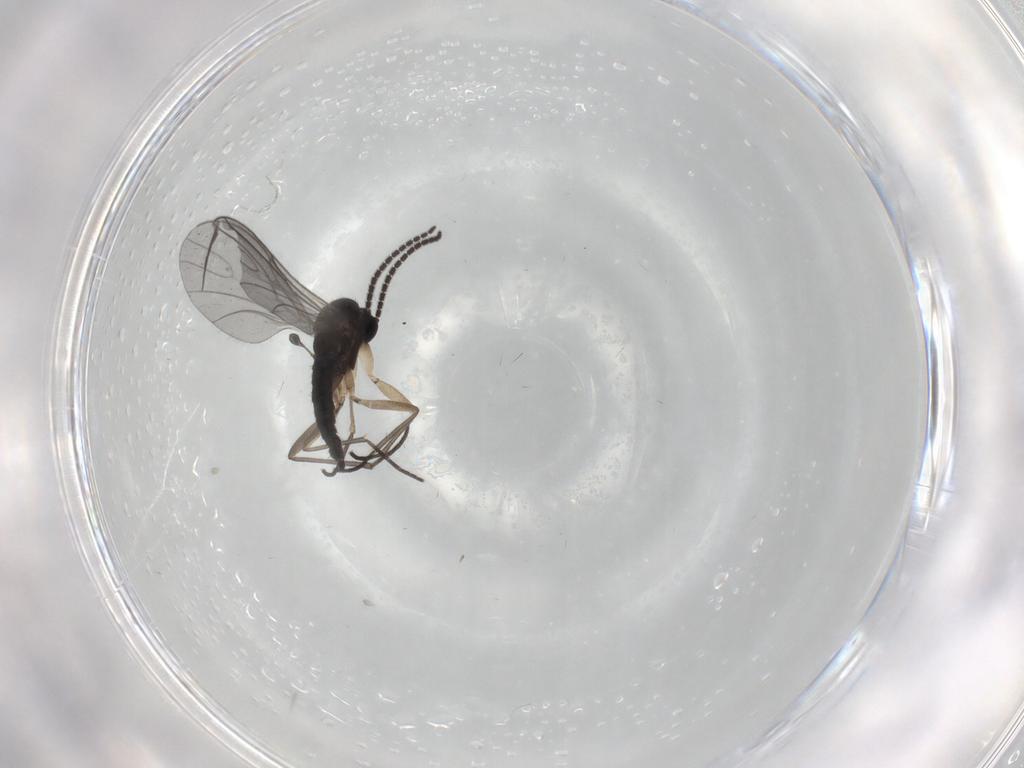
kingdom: Animalia
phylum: Arthropoda
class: Insecta
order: Diptera
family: Sciaridae
